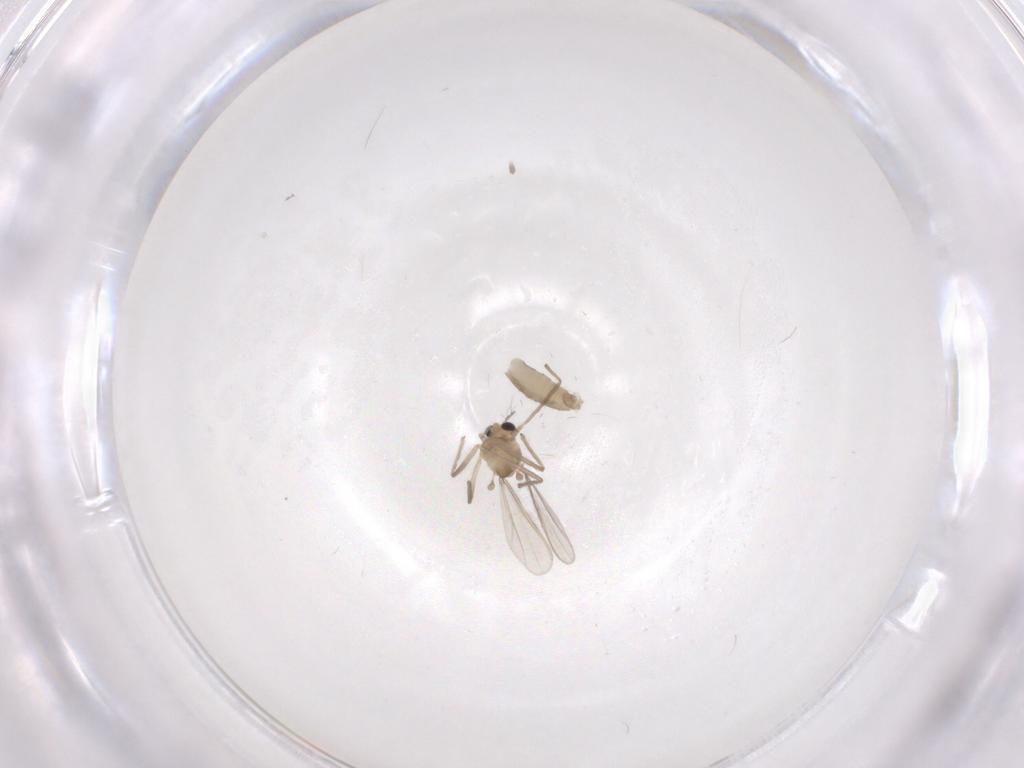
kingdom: Animalia
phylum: Arthropoda
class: Insecta
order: Diptera
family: Chironomidae
